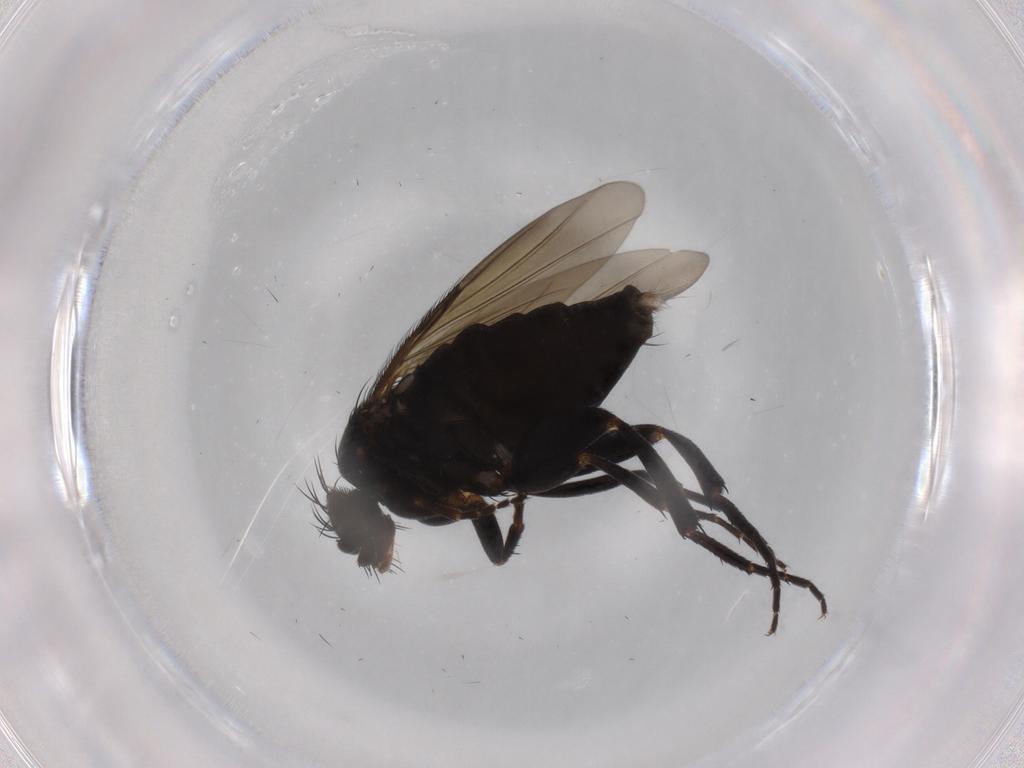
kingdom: Animalia
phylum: Arthropoda
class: Insecta
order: Diptera
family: Phoridae
